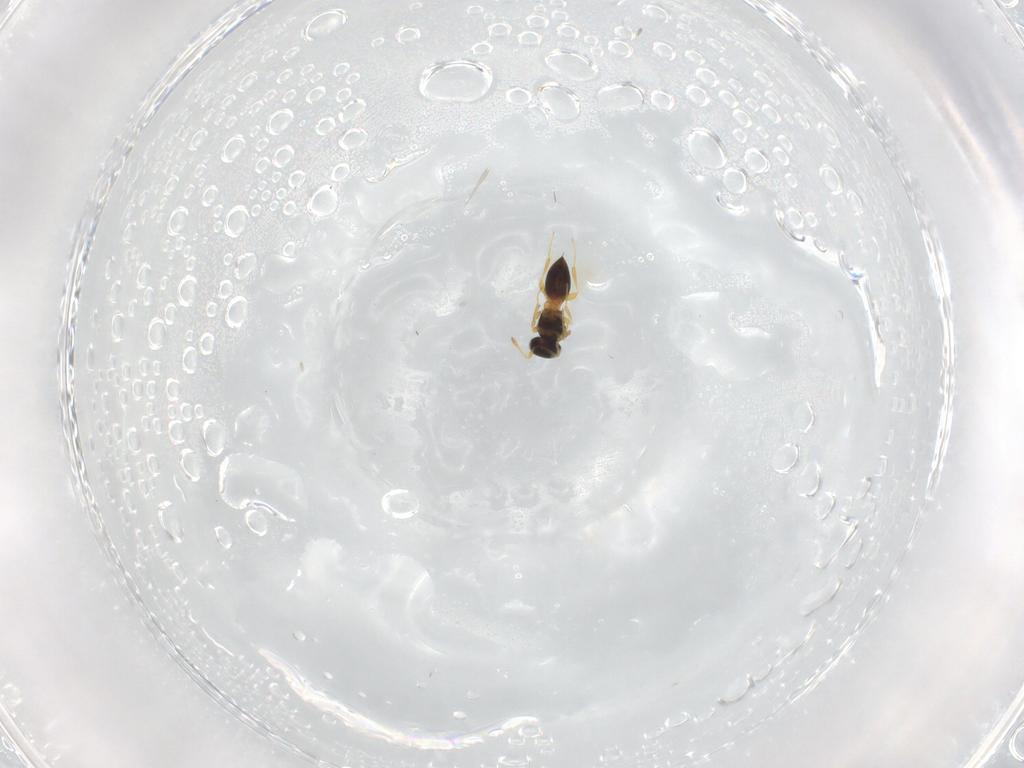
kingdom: Animalia
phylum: Arthropoda
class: Insecta
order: Hymenoptera
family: Platygastridae
